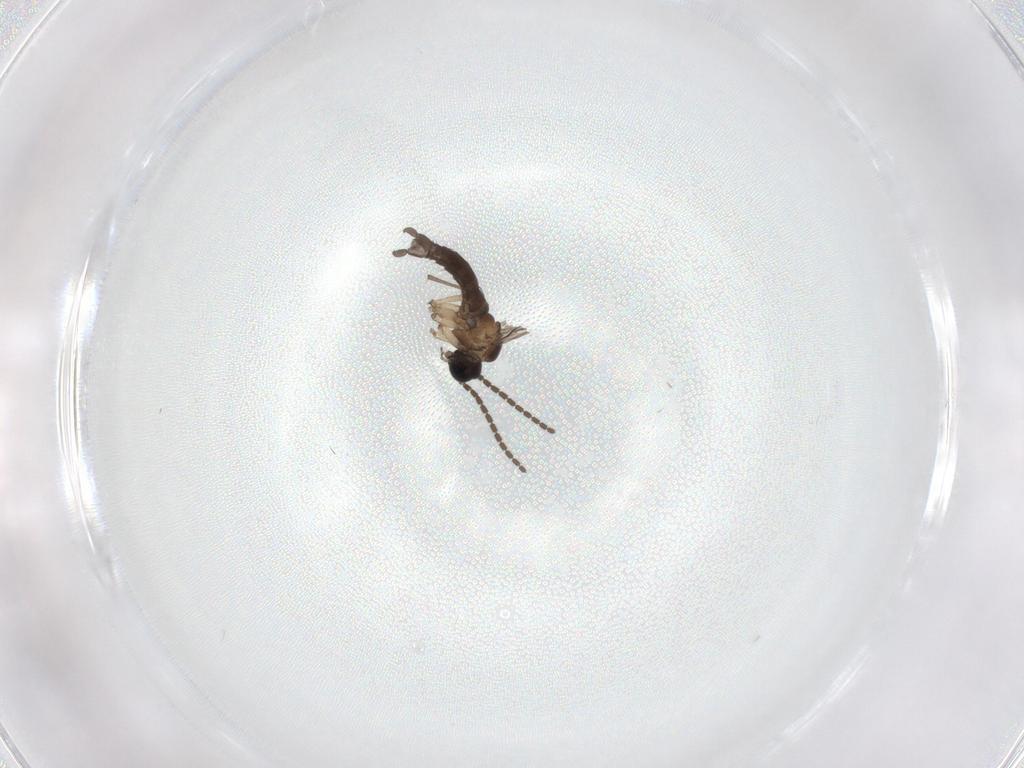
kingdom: Animalia
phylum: Arthropoda
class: Insecta
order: Diptera
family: Sciaridae
